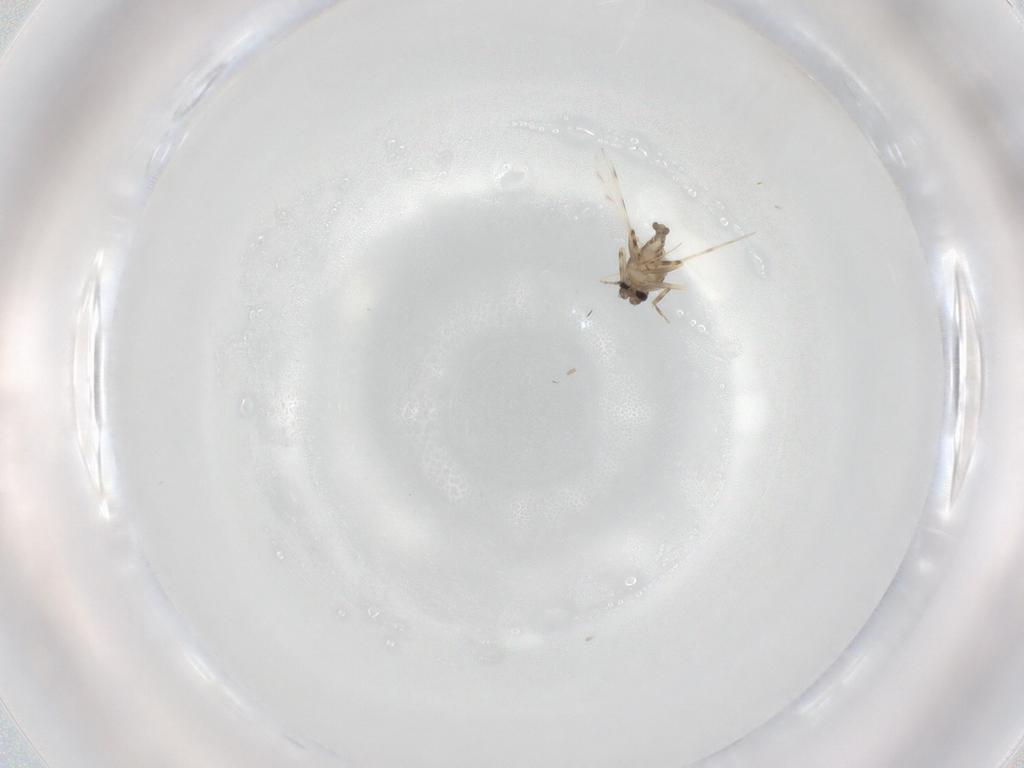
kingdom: Animalia
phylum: Arthropoda
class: Insecta
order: Diptera
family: Ceratopogonidae
